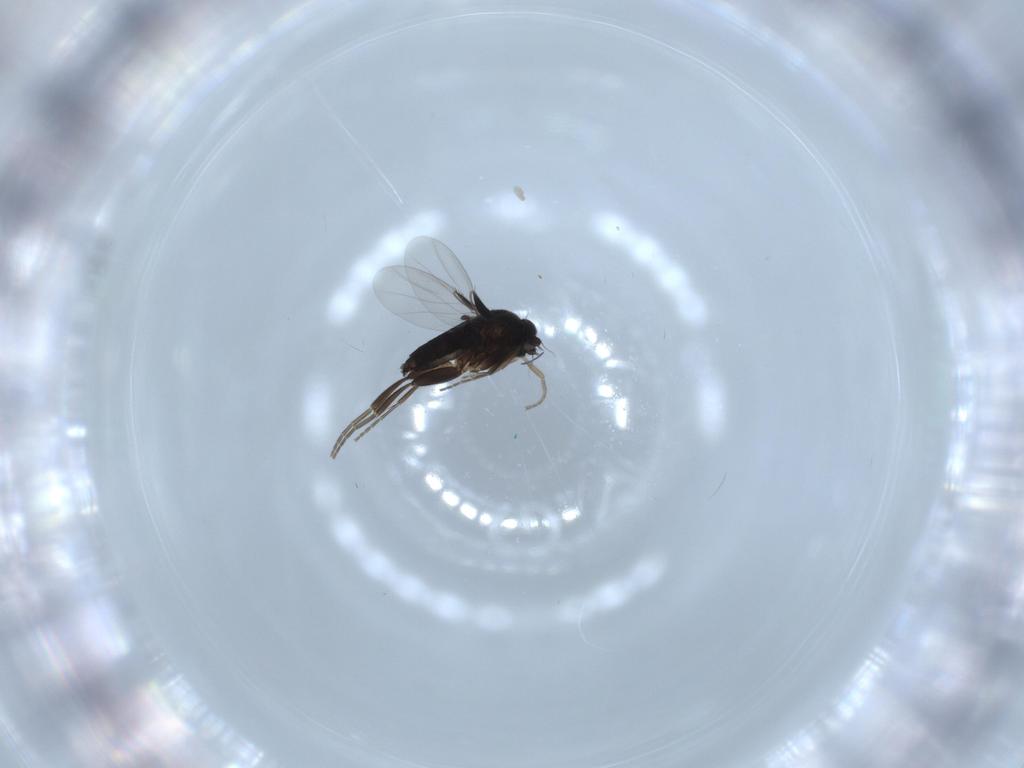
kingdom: Animalia
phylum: Arthropoda
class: Insecta
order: Diptera
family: Phoridae
